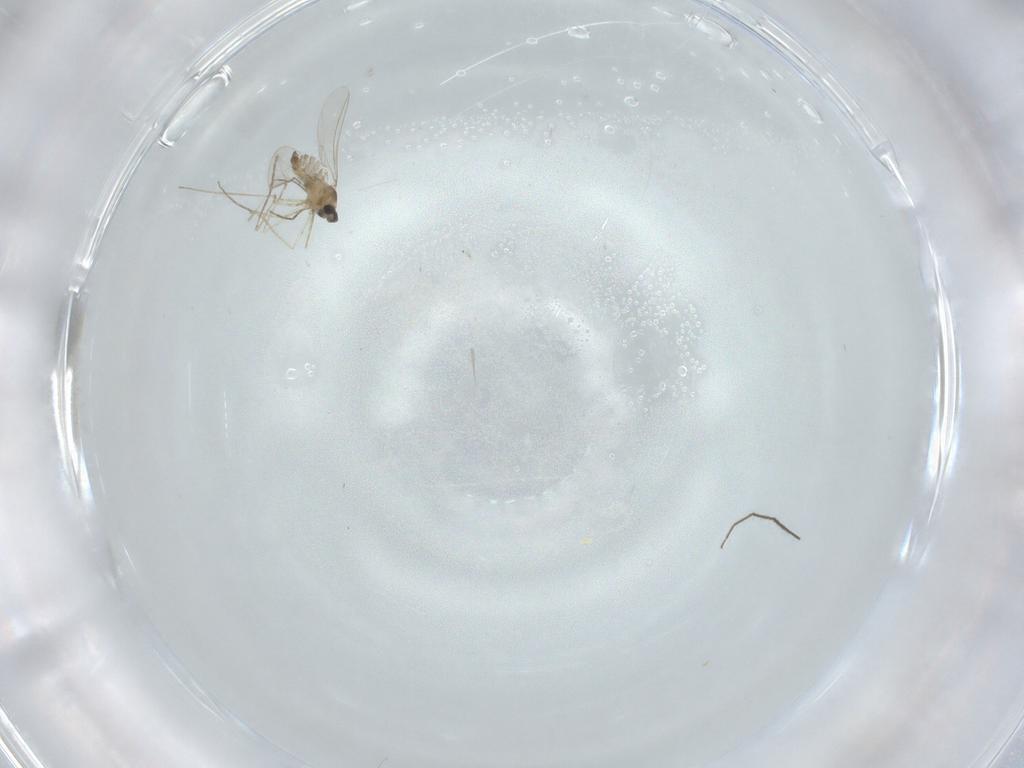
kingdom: Animalia
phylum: Arthropoda
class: Insecta
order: Diptera
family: Chironomidae
